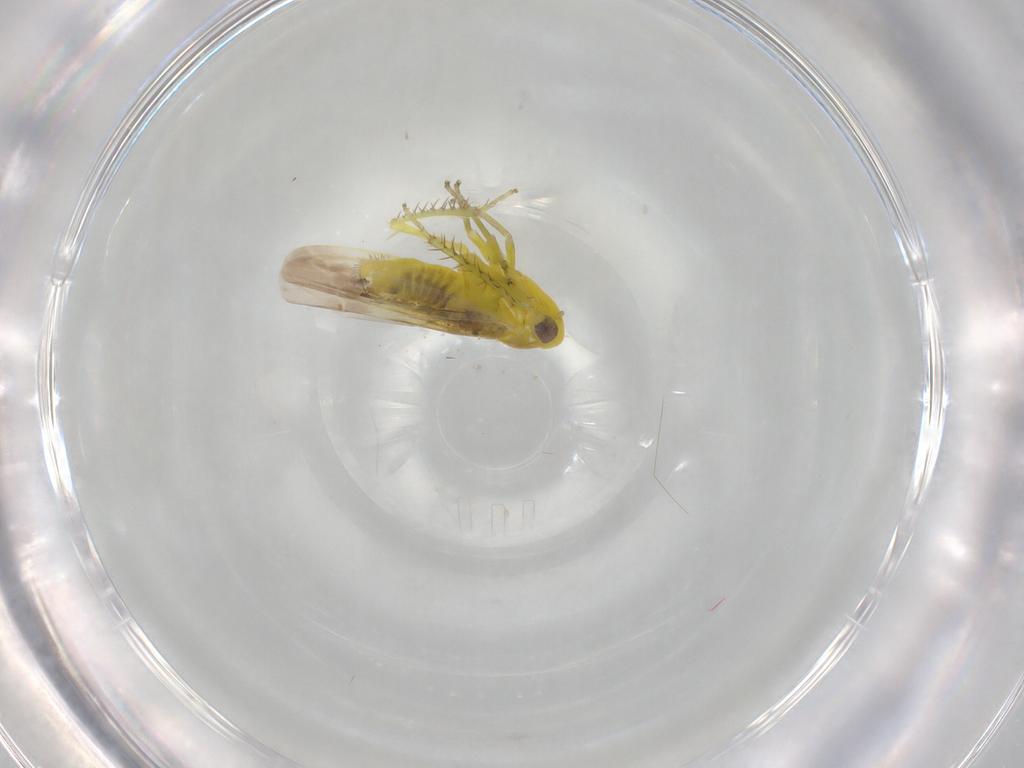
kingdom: Animalia
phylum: Arthropoda
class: Insecta
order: Hemiptera
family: Aleyrodidae
